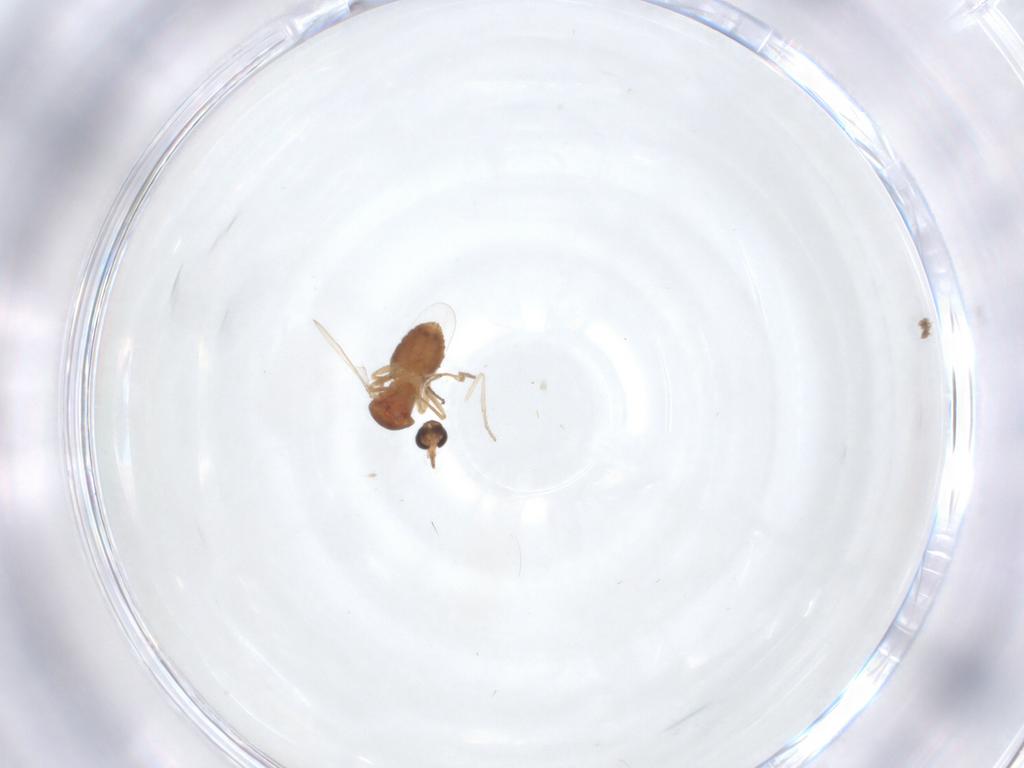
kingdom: Animalia
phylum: Arthropoda
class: Insecta
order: Diptera
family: Ceratopogonidae
